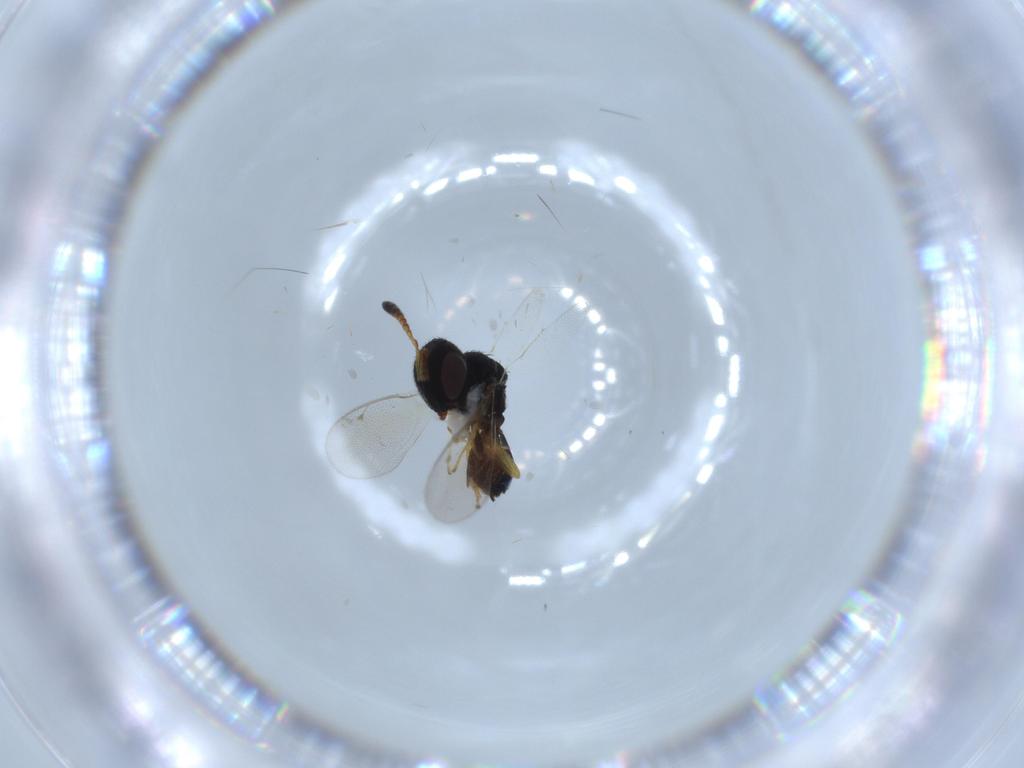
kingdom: Animalia
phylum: Arthropoda
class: Insecta
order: Hymenoptera
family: Pteromalidae
